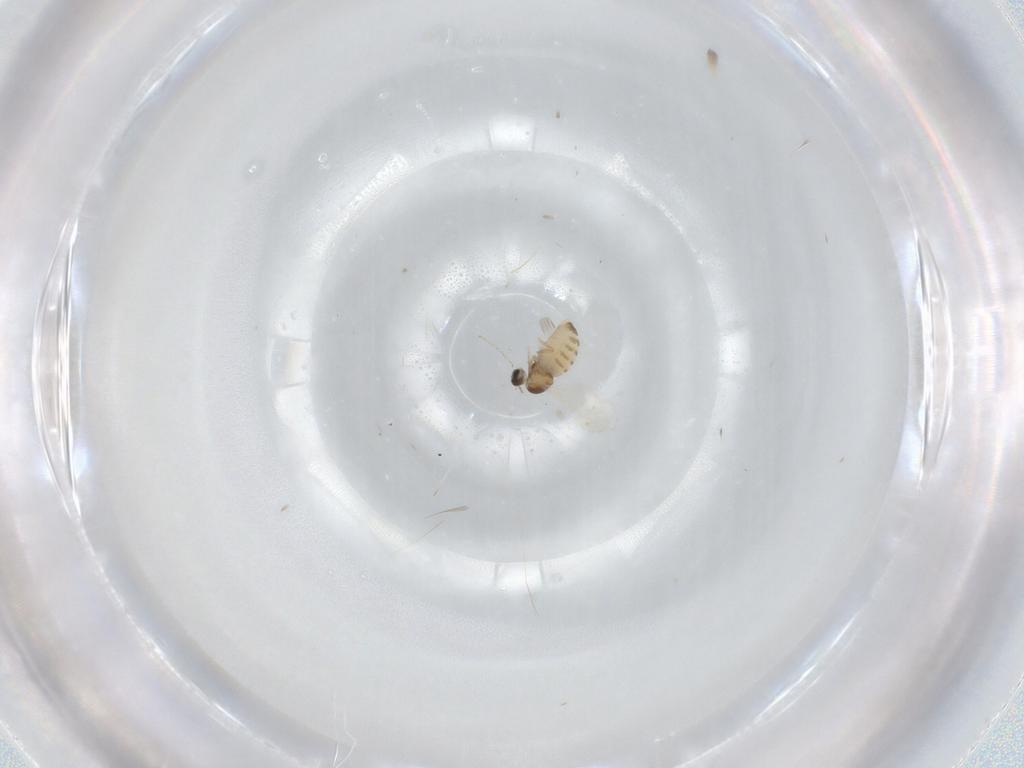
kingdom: Animalia
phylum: Arthropoda
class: Insecta
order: Diptera
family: Cecidomyiidae
